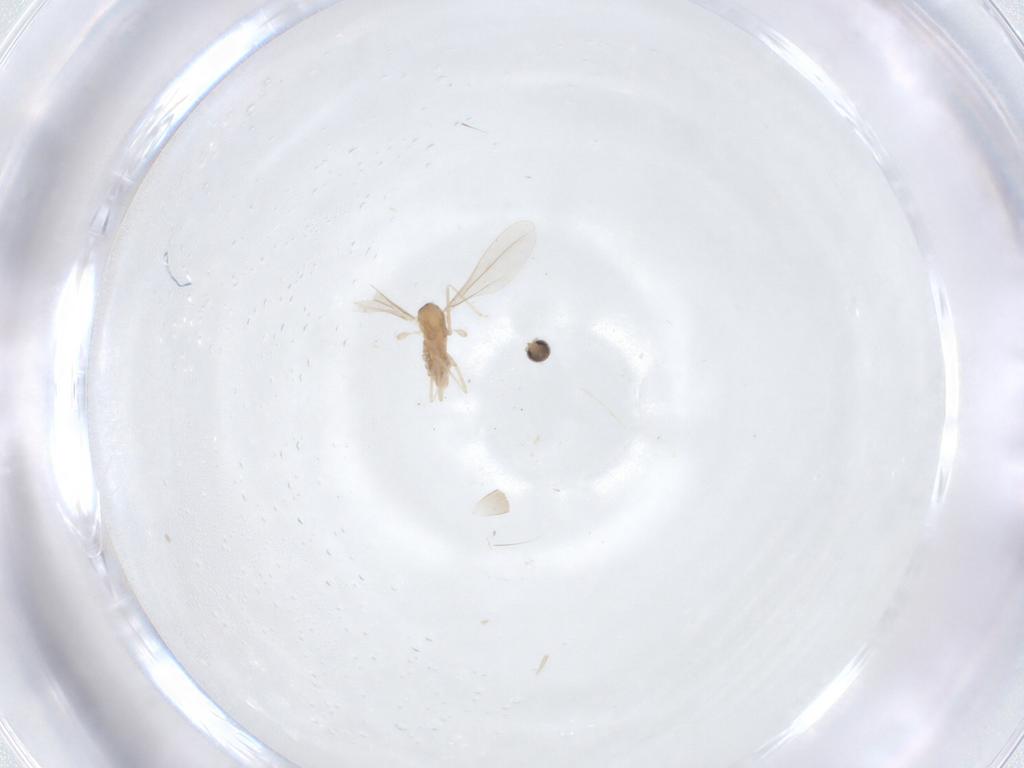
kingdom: Animalia
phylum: Arthropoda
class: Insecta
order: Diptera
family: Cecidomyiidae
